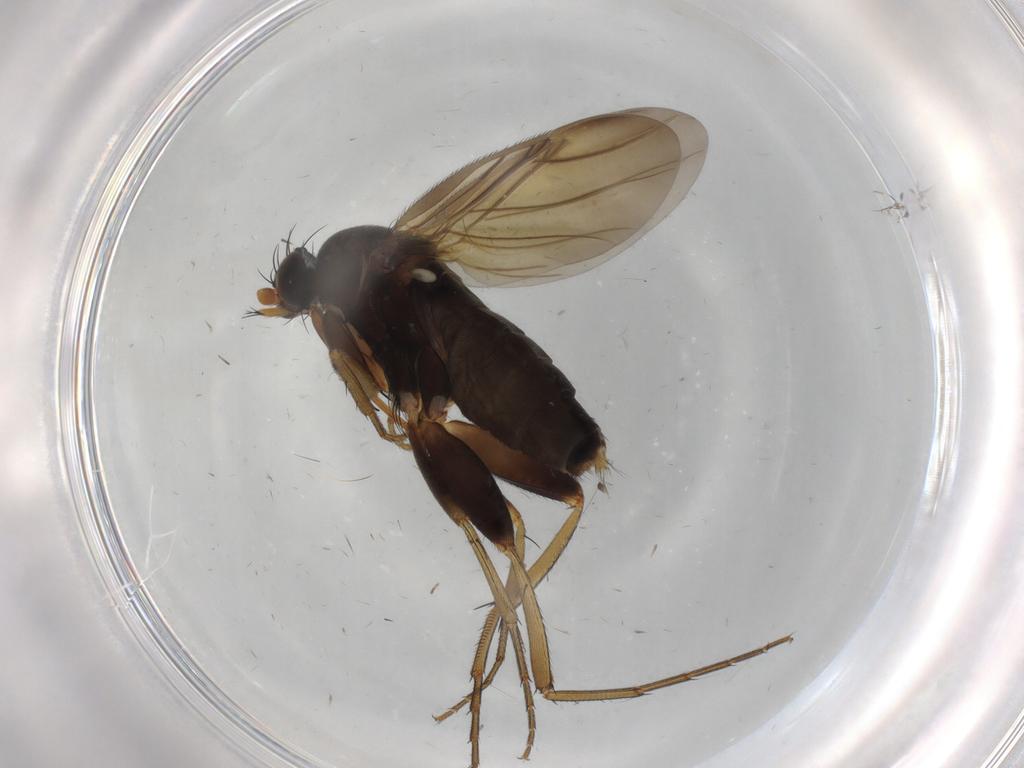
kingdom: Animalia
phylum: Arthropoda
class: Insecta
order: Diptera
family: Phoridae
